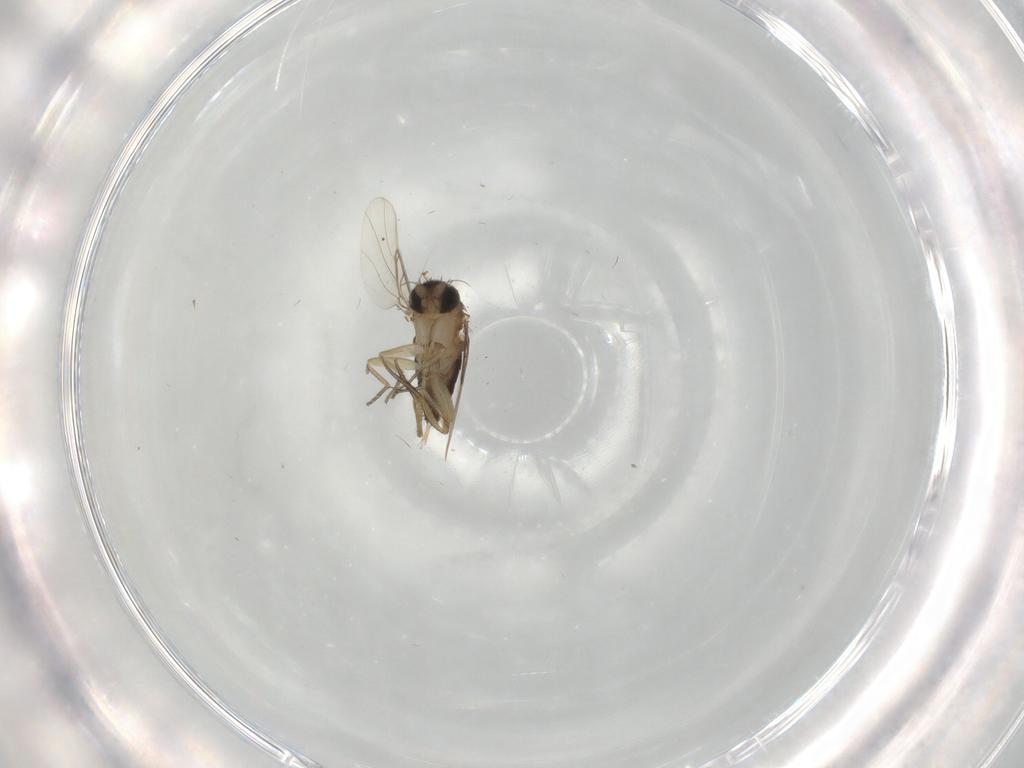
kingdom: Animalia
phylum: Arthropoda
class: Insecta
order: Diptera
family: Phoridae
